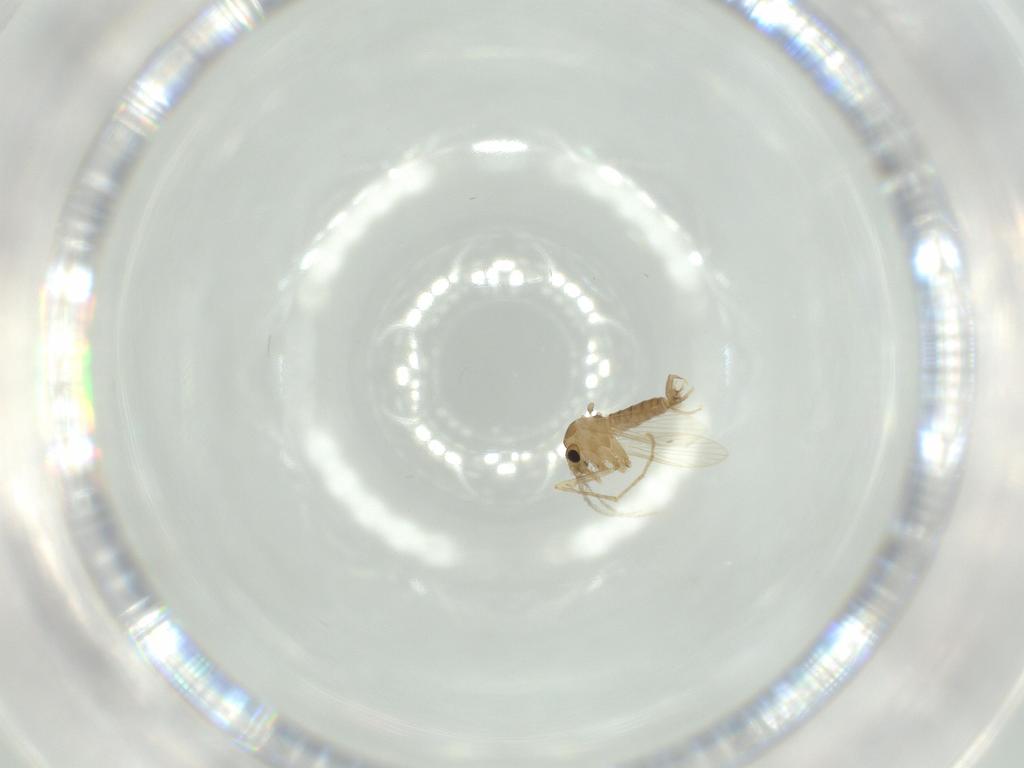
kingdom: Animalia
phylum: Arthropoda
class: Insecta
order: Diptera
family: Psychodidae
